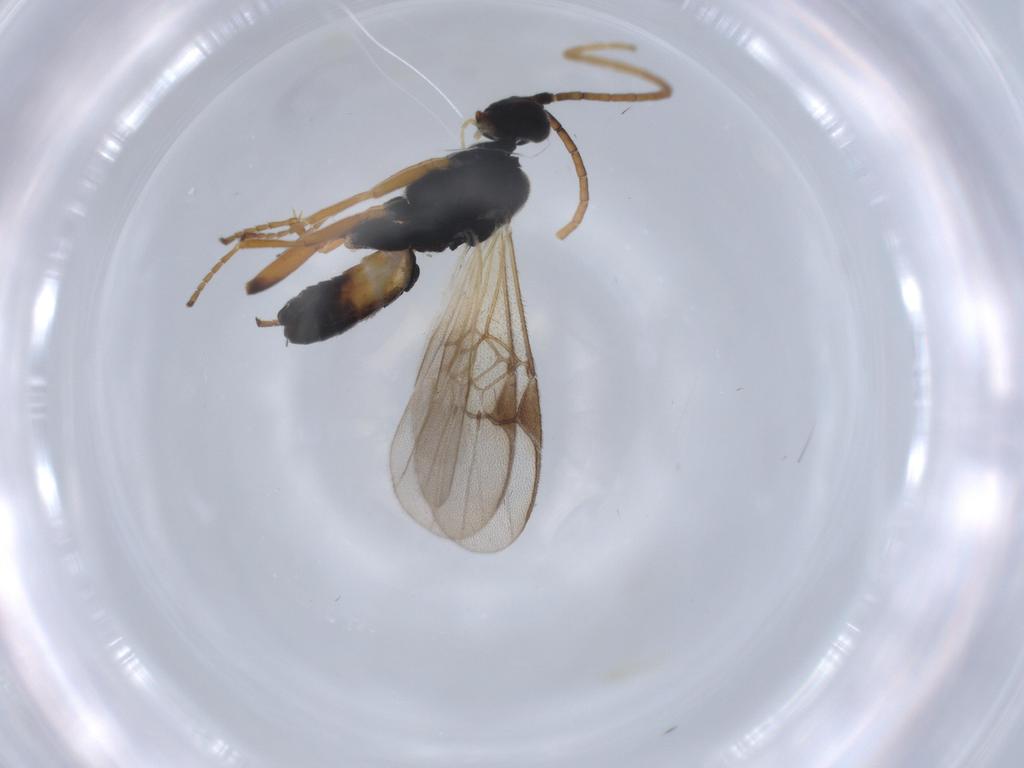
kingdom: Animalia
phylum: Arthropoda
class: Insecta
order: Hymenoptera
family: Braconidae
